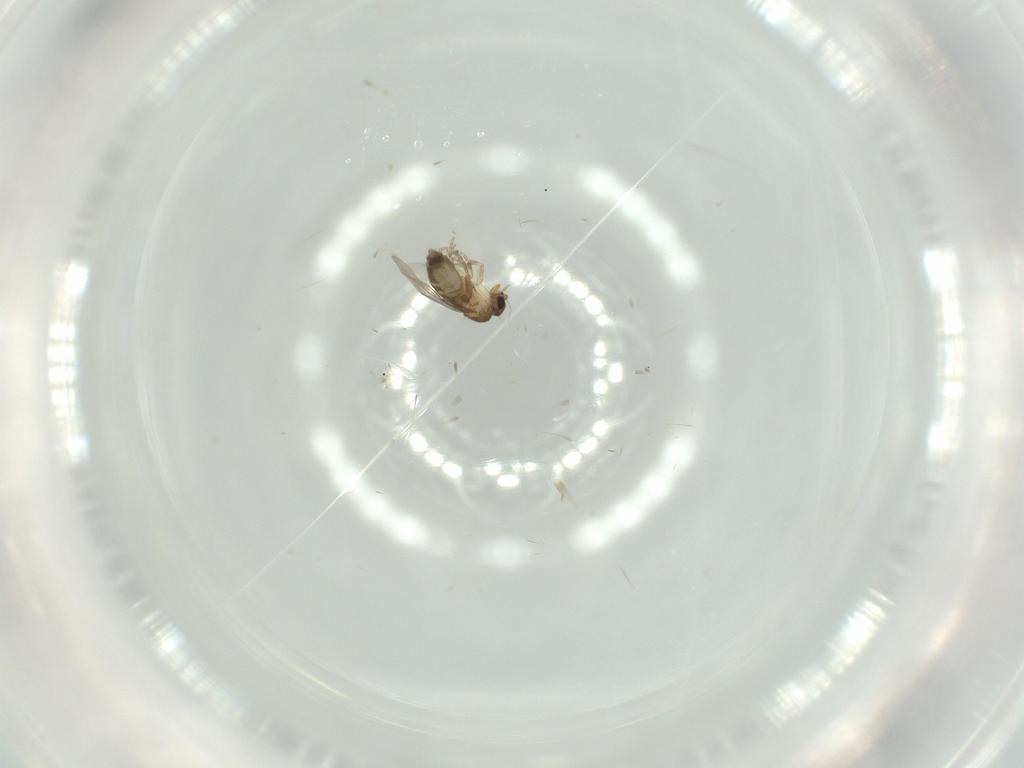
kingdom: Animalia
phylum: Arthropoda
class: Insecta
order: Diptera
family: Phoridae
